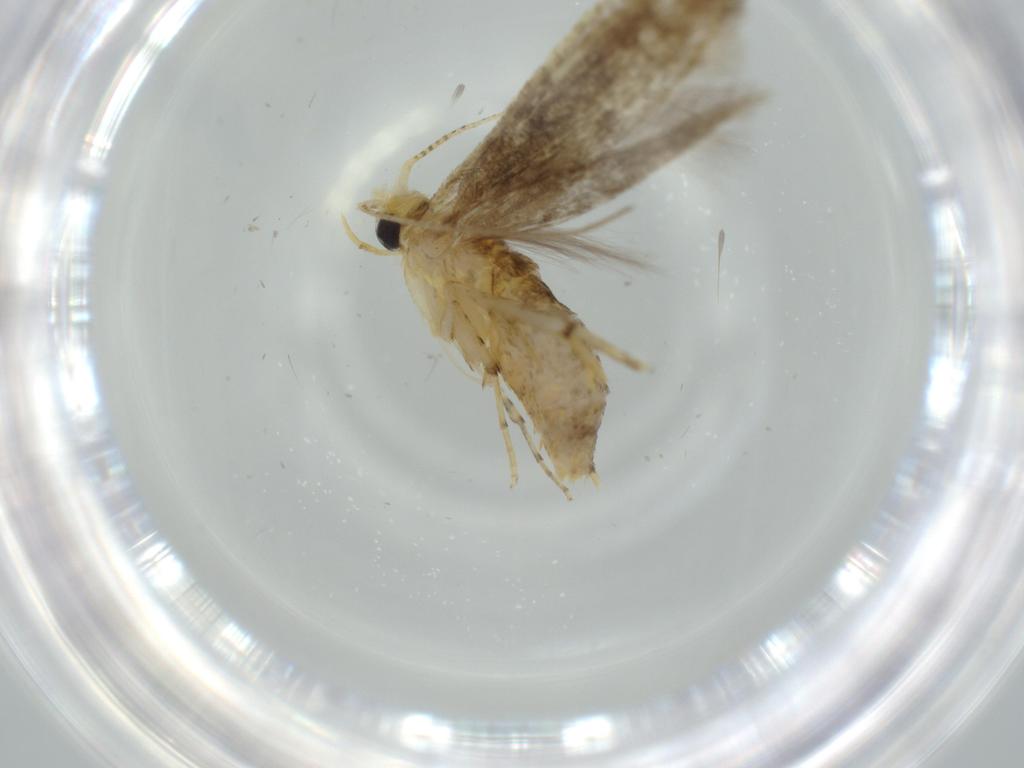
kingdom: Animalia
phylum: Arthropoda
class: Insecta
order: Lepidoptera
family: Argyresthiidae
